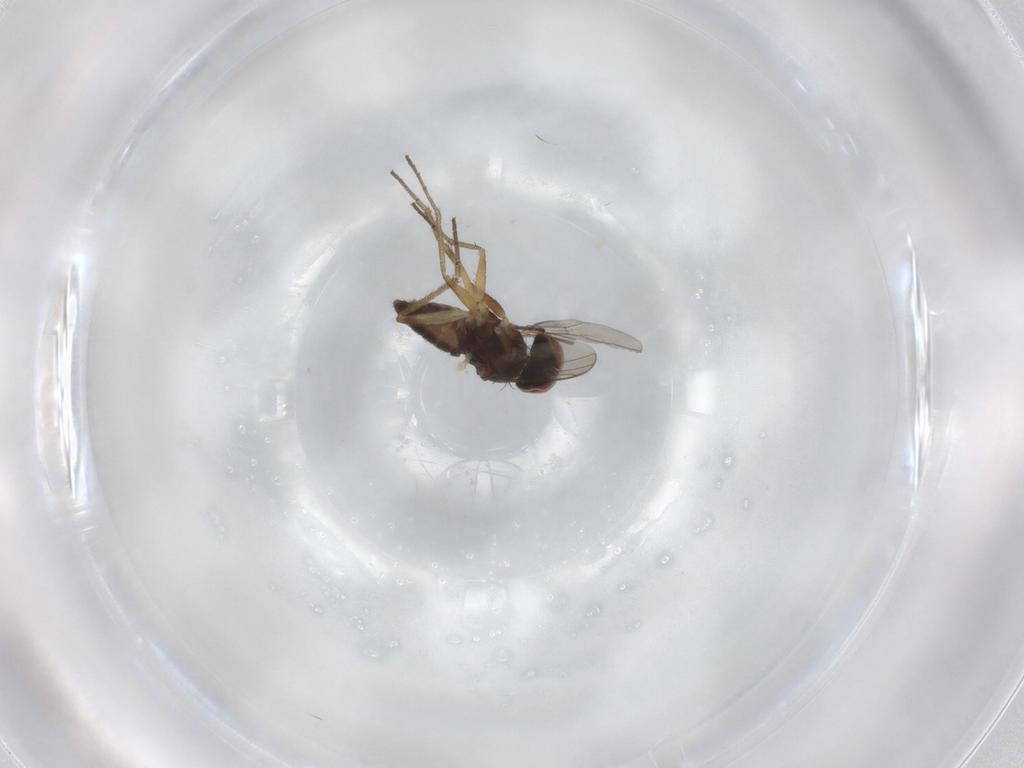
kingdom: Animalia
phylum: Arthropoda
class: Insecta
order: Diptera
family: Dolichopodidae
